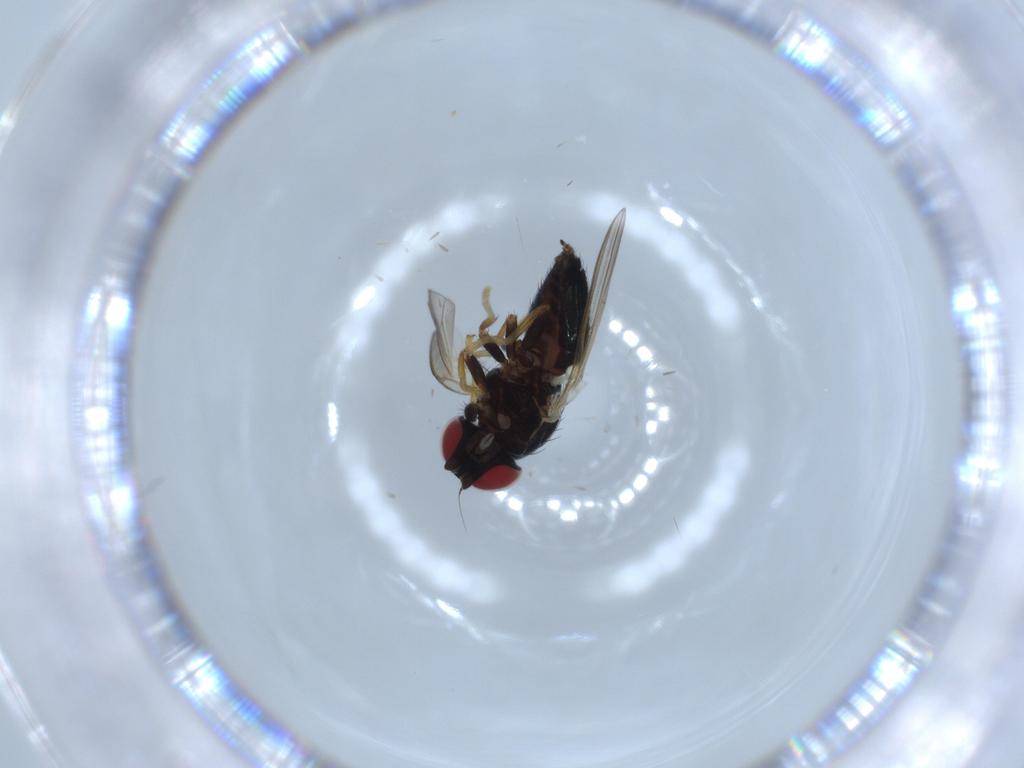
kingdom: Animalia
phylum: Arthropoda
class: Insecta
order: Diptera
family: Chamaemyiidae
